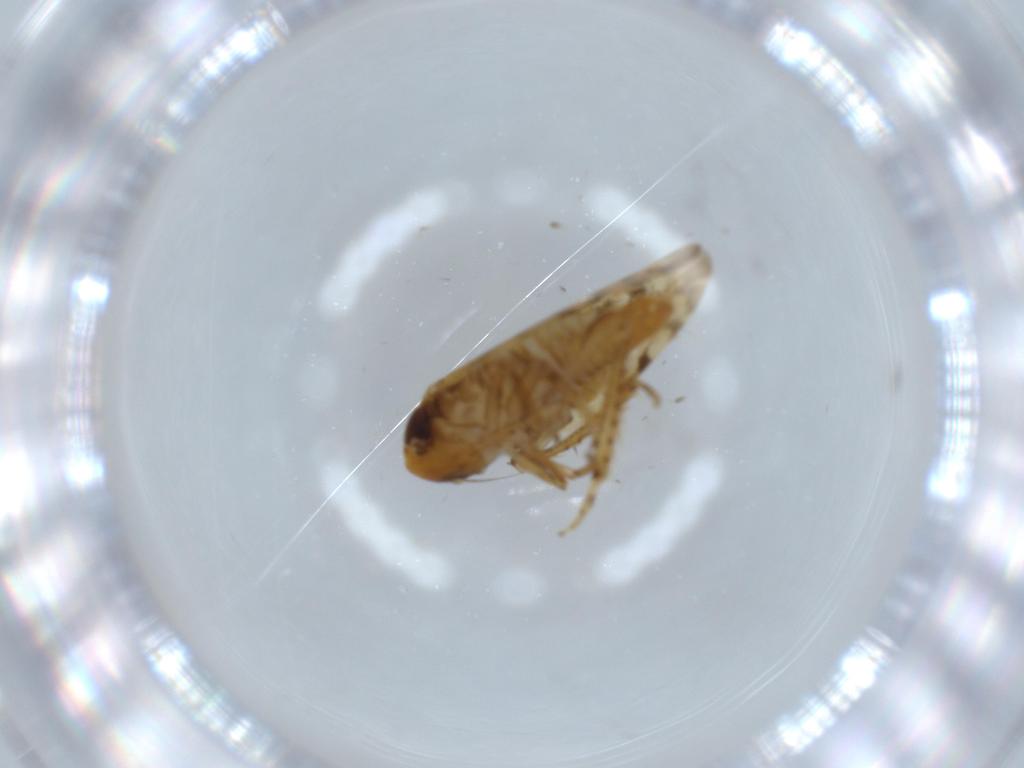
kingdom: Animalia
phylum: Arthropoda
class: Insecta
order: Hemiptera
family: Cicadellidae
